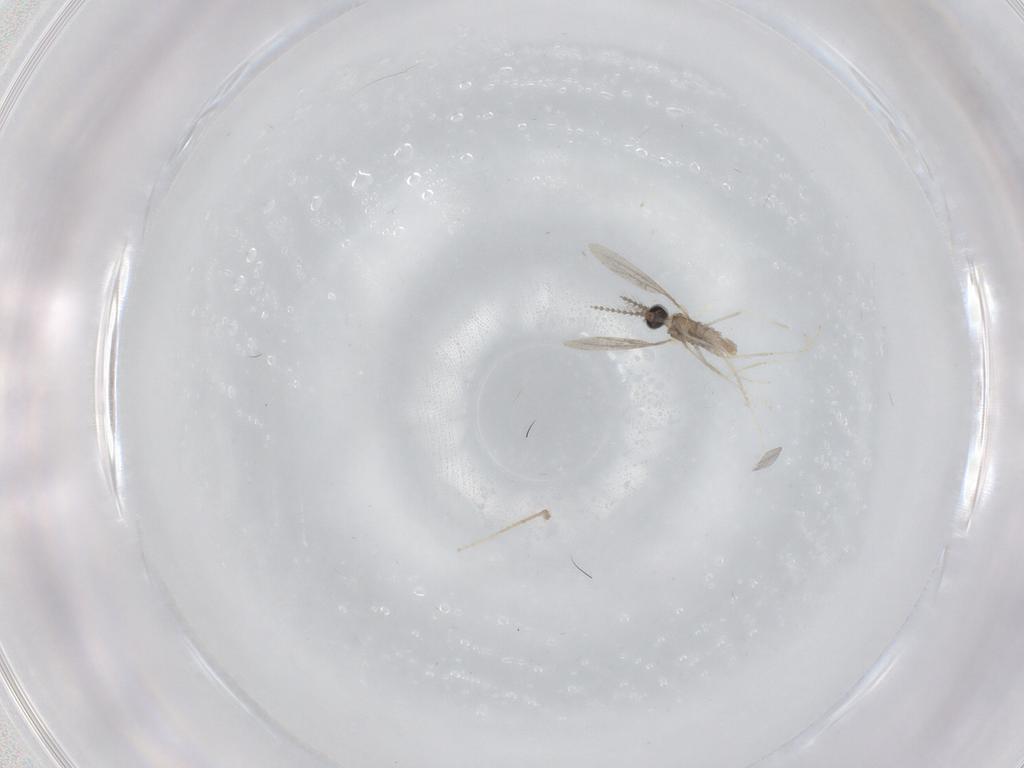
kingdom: Animalia
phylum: Arthropoda
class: Insecta
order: Diptera
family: Cecidomyiidae
